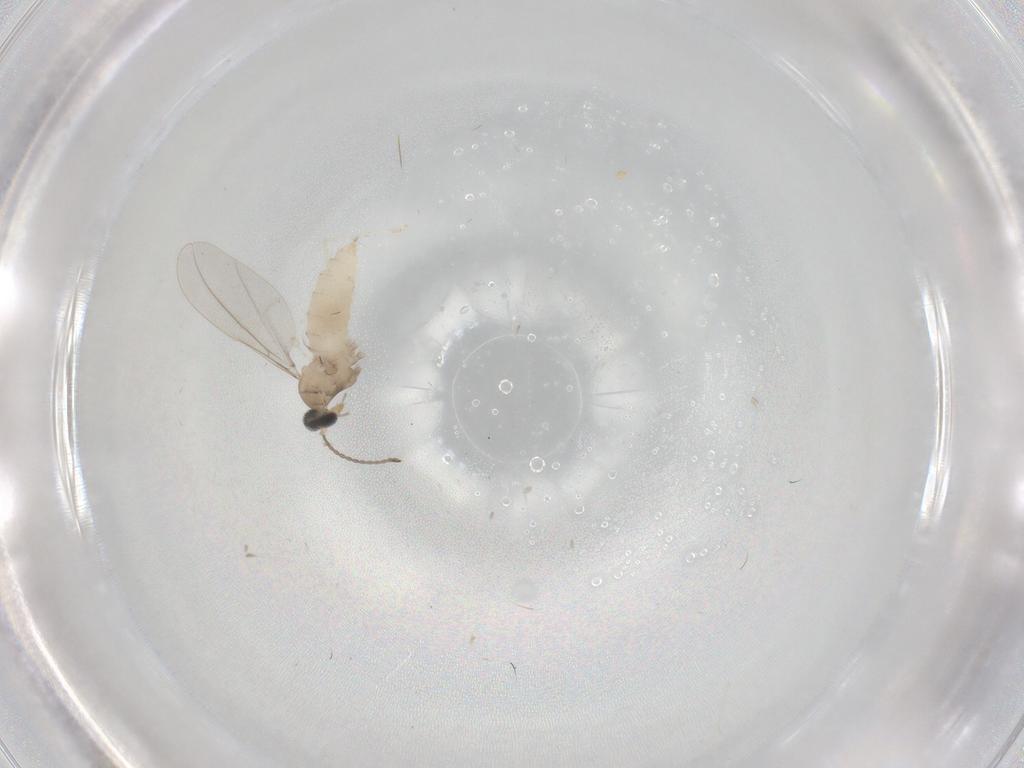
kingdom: Animalia
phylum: Arthropoda
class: Insecta
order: Diptera
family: Cecidomyiidae
